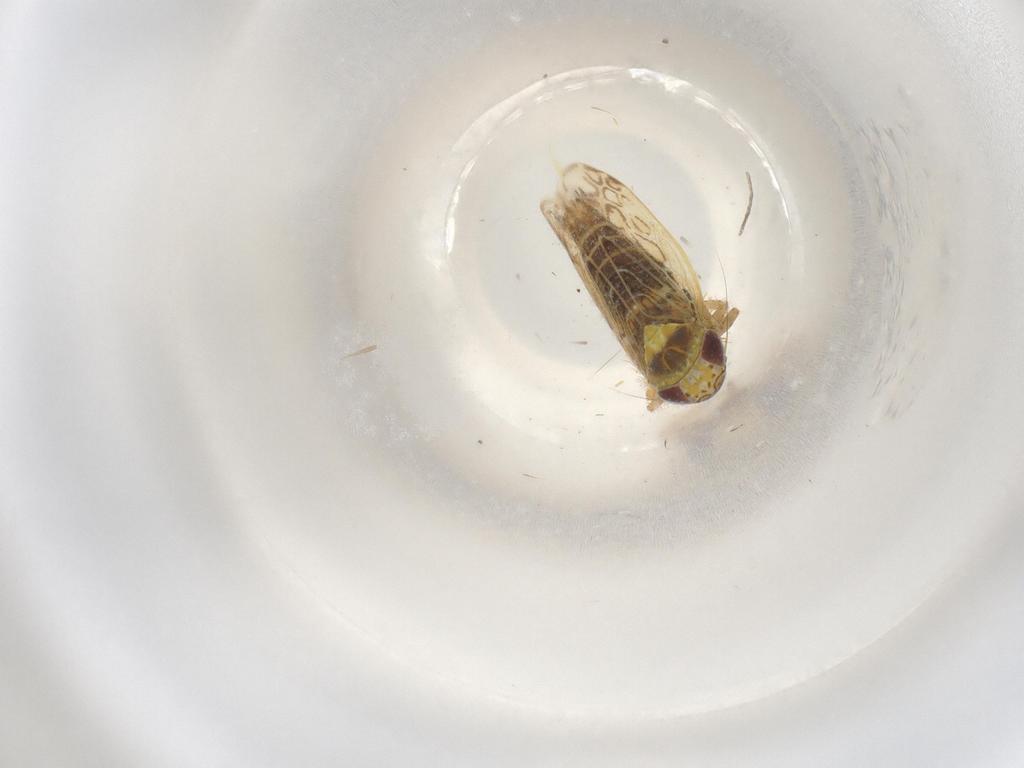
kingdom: Animalia
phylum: Arthropoda
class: Insecta
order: Hemiptera
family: Cicadellidae
